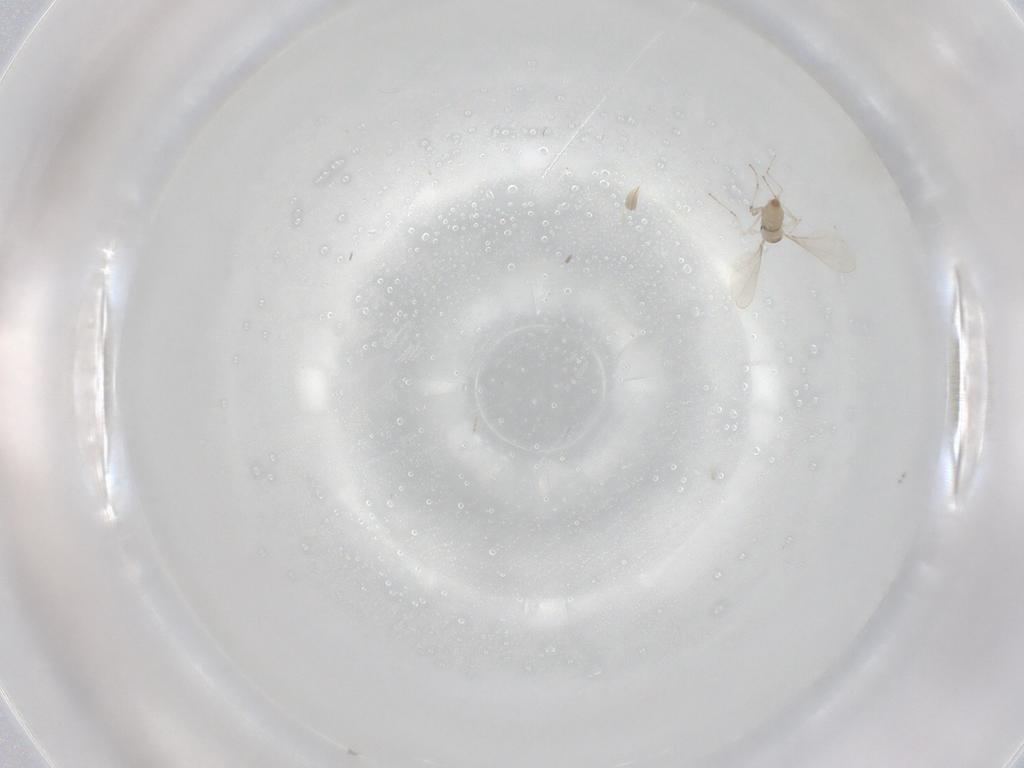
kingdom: Animalia
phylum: Arthropoda
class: Insecta
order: Diptera
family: Cecidomyiidae
